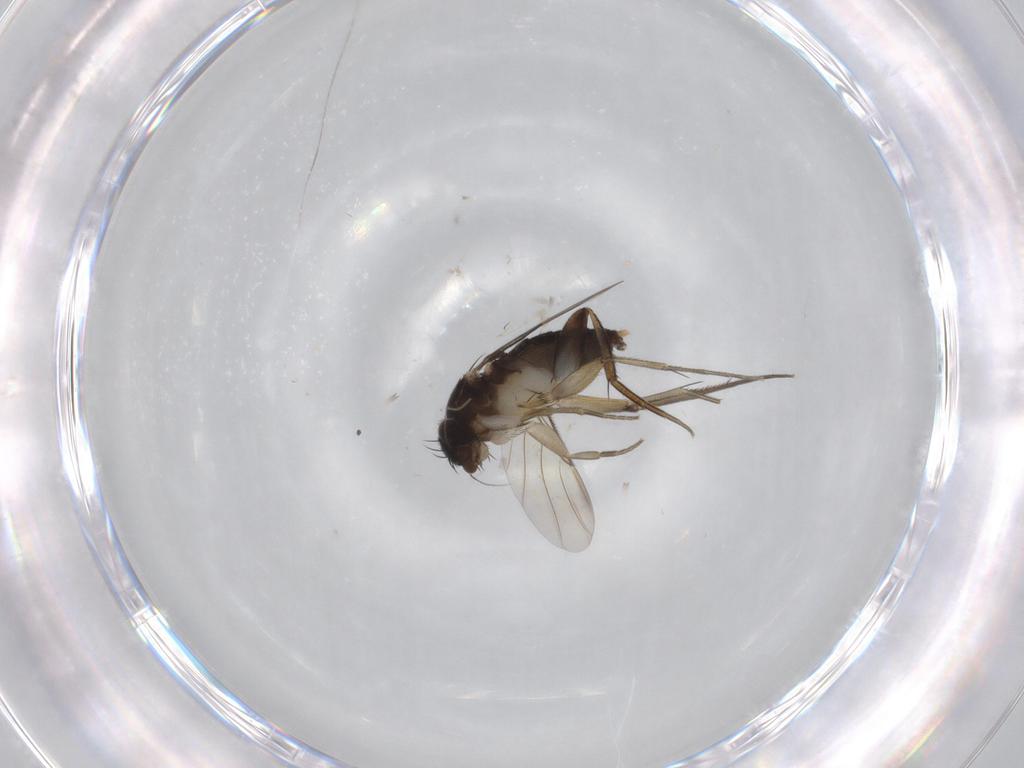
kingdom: Animalia
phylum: Arthropoda
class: Insecta
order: Diptera
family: Phoridae
